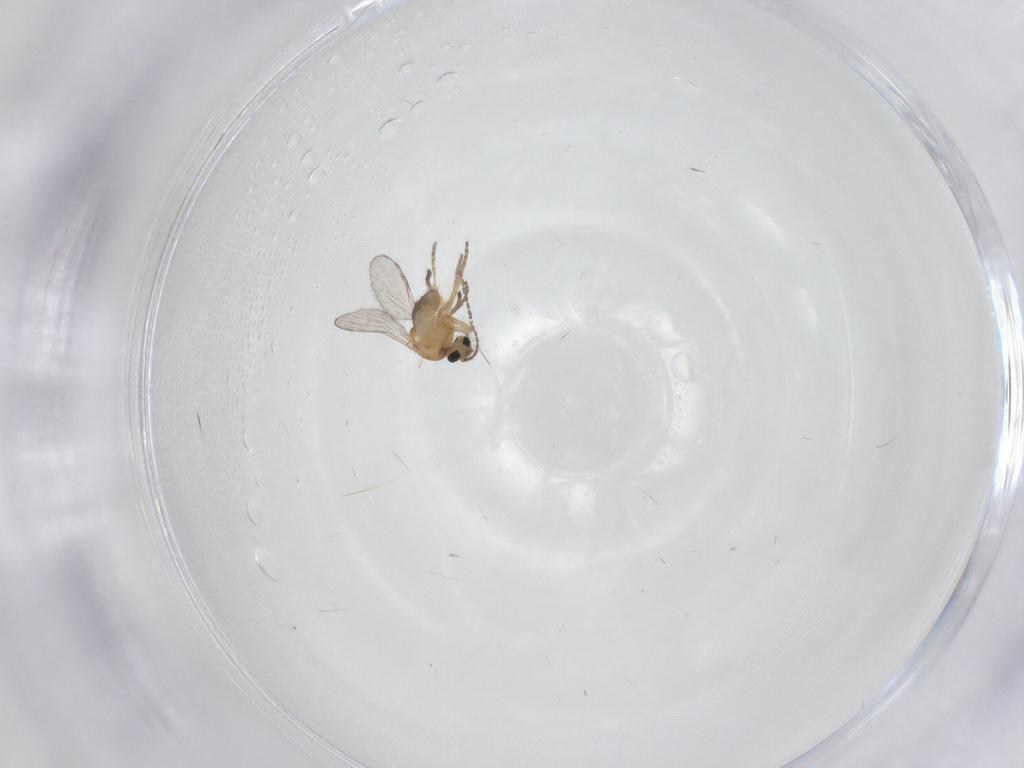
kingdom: Animalia
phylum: Arthropoda
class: Insecta
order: Diptera
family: Ceratopogonidae
